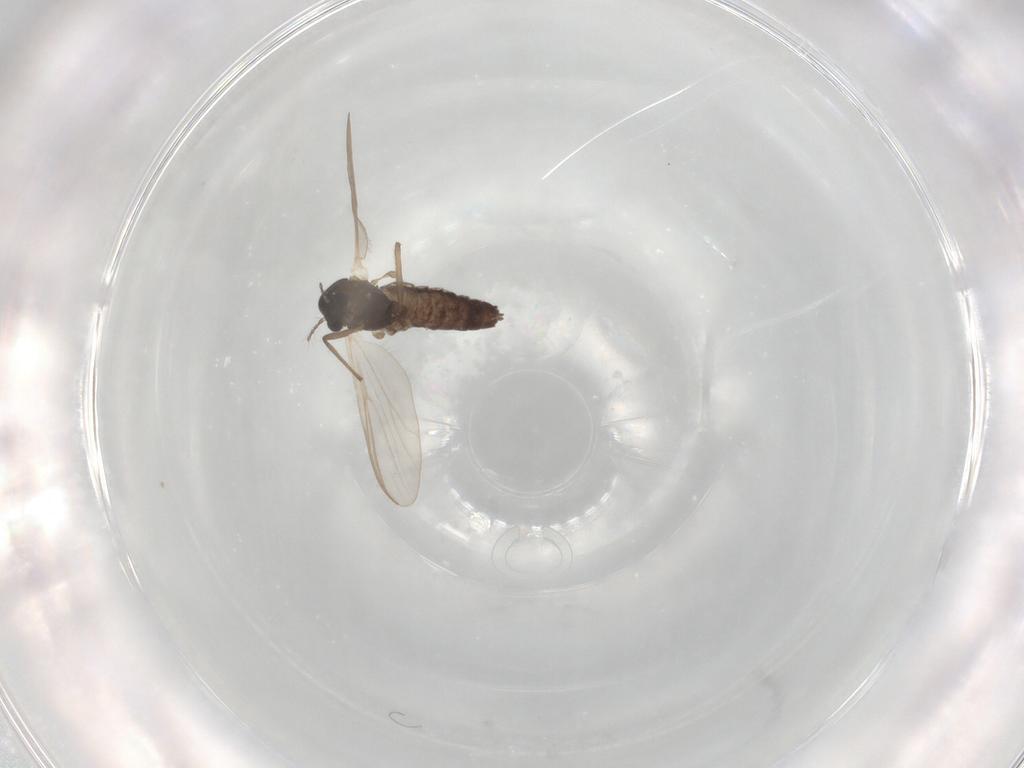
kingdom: Animalia
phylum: Arthropoda
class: Insecta
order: Diptera
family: Chironomidae
